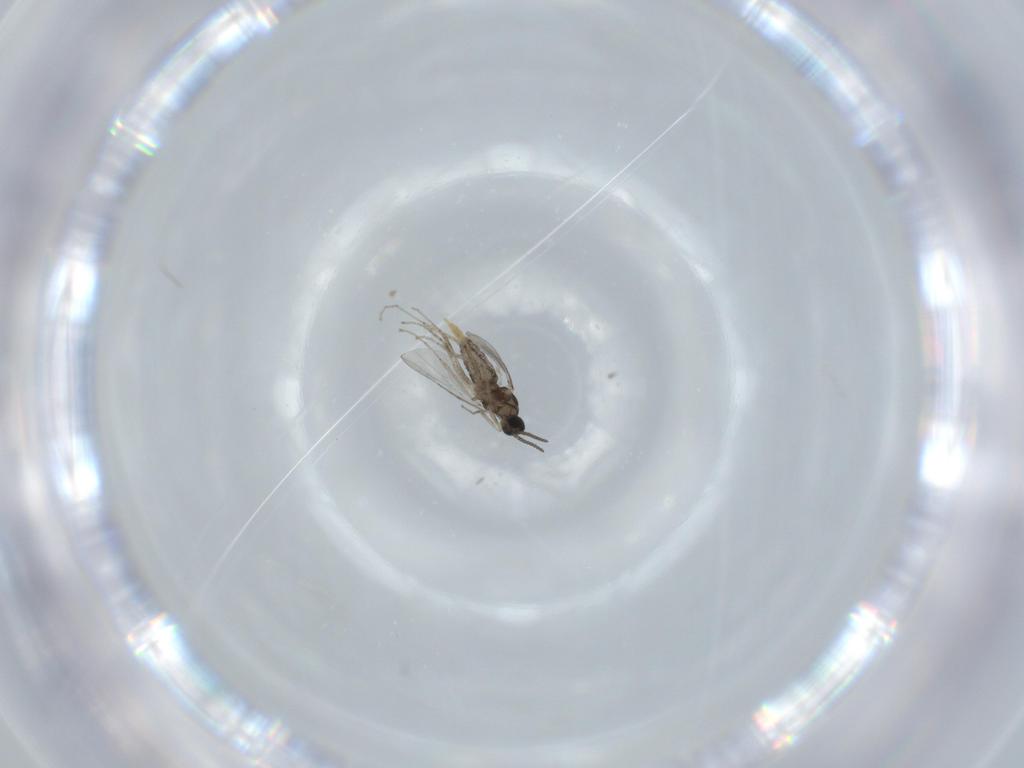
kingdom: Animalia
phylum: Arthropoda
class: Insecta
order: Diptera
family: Cecidomyiidae
